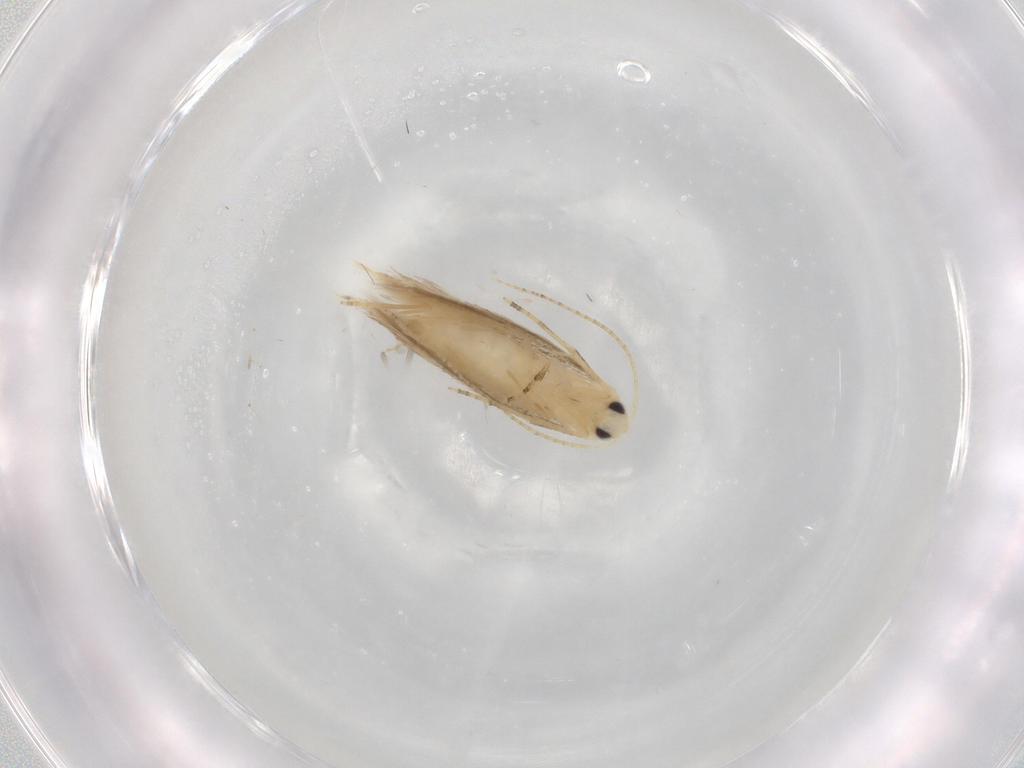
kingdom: Animalia
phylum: Arthropoda
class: Insecta
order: Lepidoptera
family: Bucculatricidae
